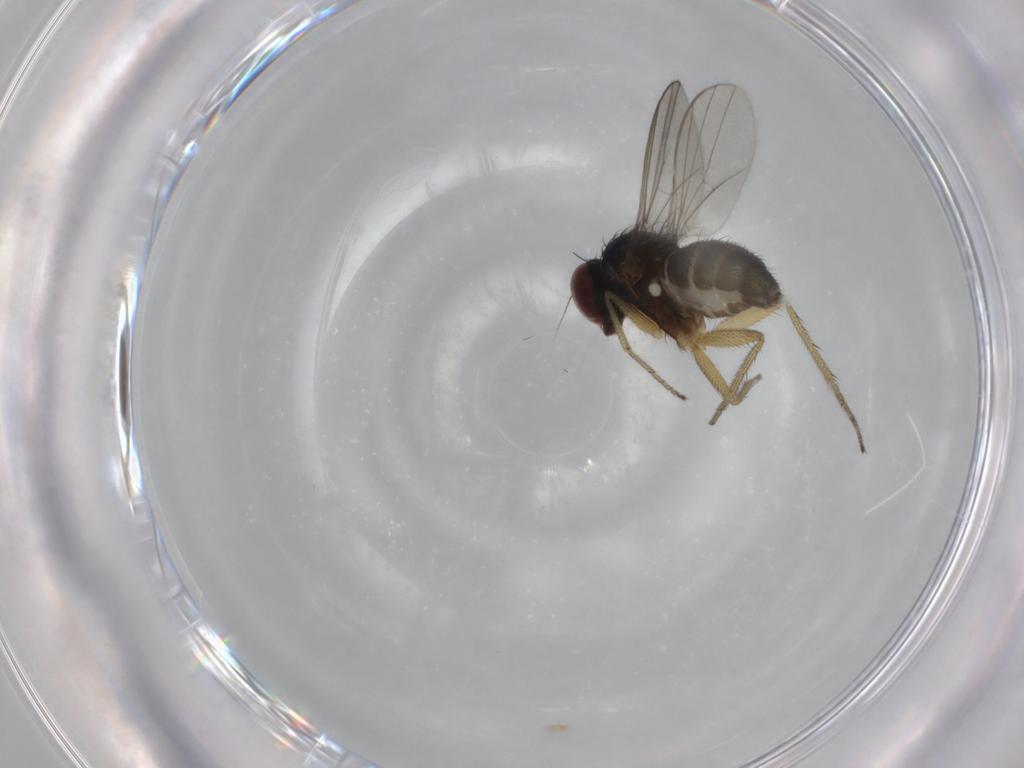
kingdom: Animalia
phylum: Arthropoda
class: Insecta
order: Diptera
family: Dolichopodidae
